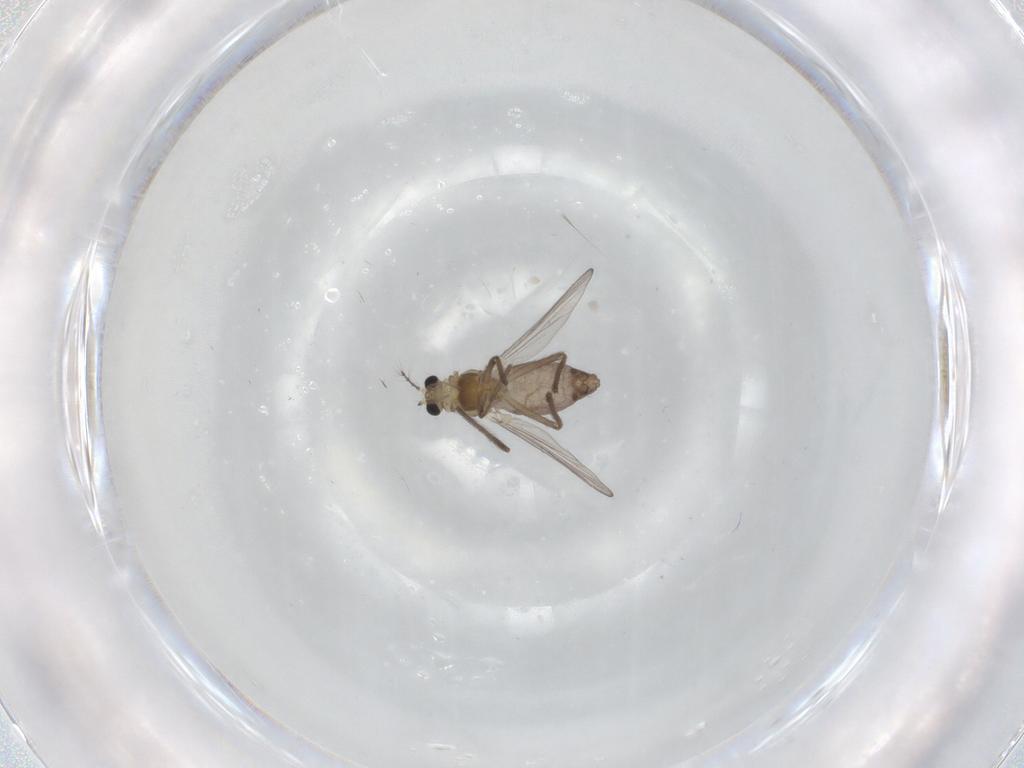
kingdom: Animalia
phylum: Arthropoda
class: Insecta
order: Diptera
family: Chironomidae
